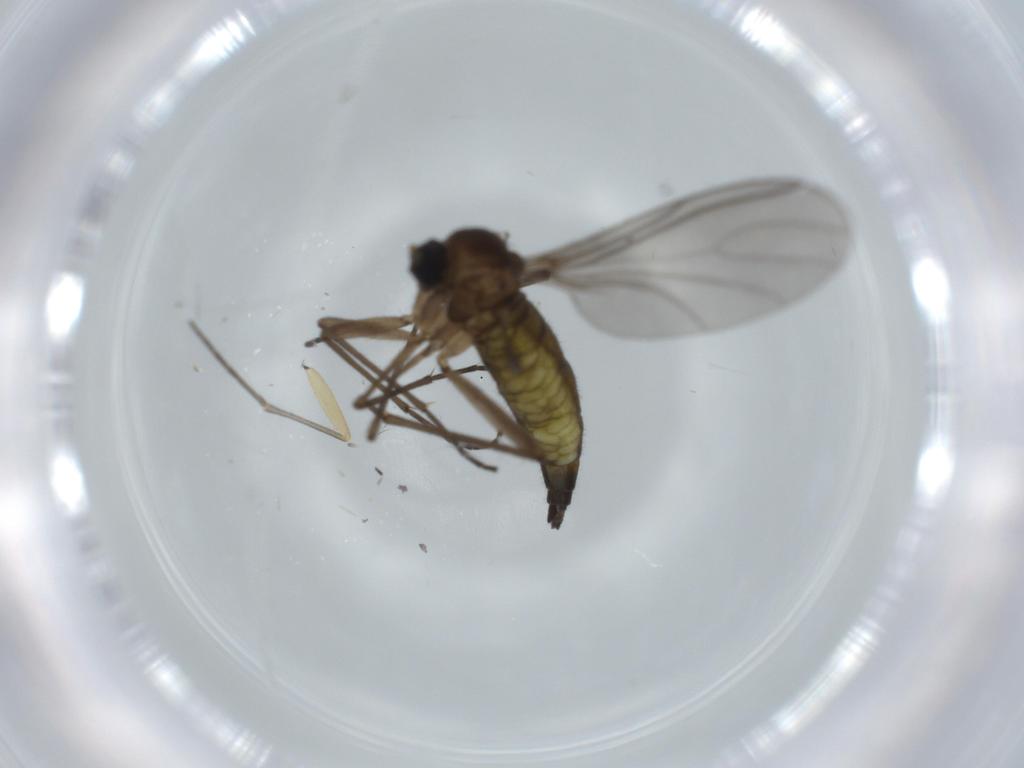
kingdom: Animalia
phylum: Arthropoda
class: Insecta
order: Diptera
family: Sciaridae
